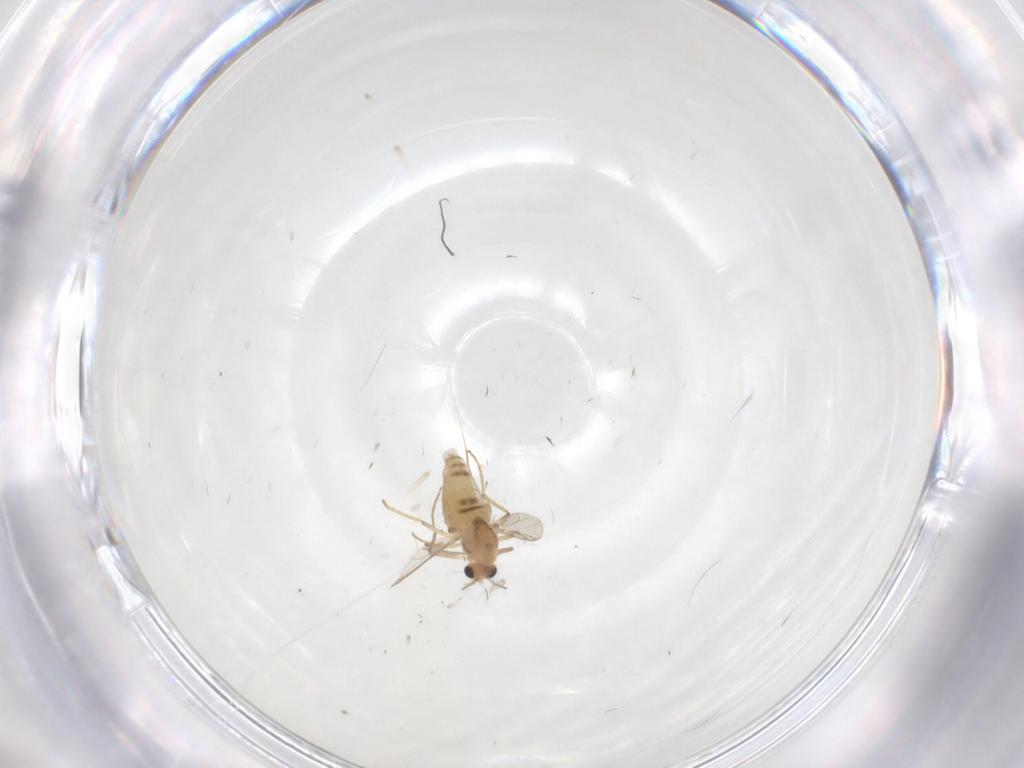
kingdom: Animalia
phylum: Arthropoda
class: Insecta
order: Diptera
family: Chironomidae
